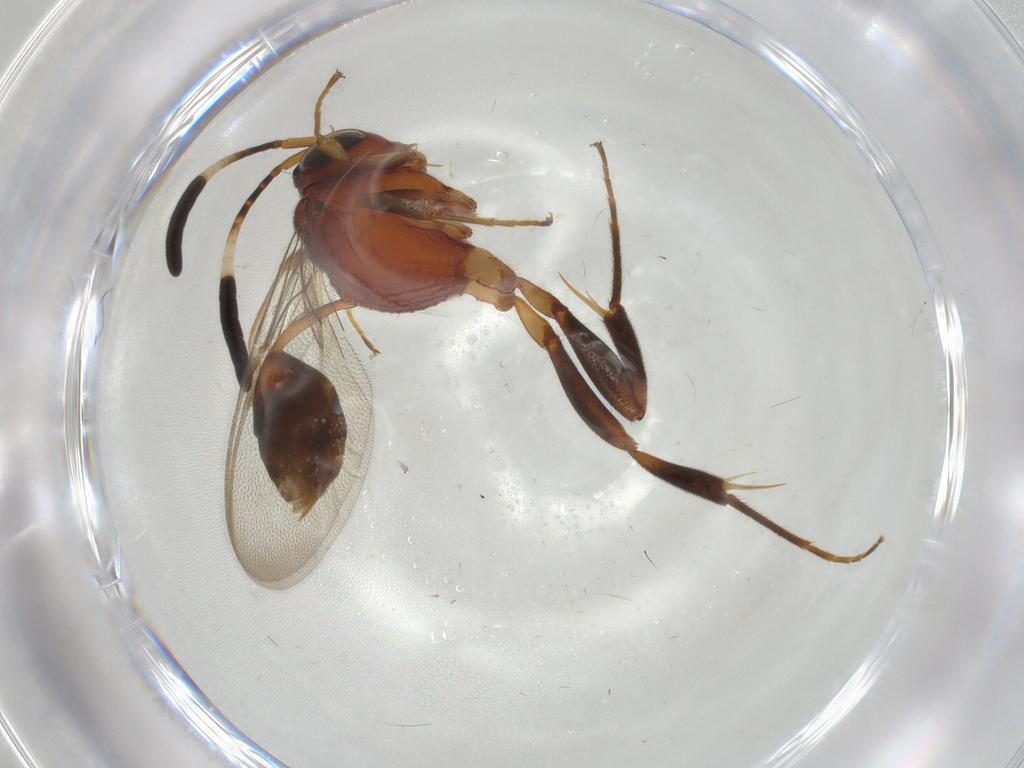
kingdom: Animalia
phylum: Arthropoda
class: Insecta
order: Hymenoptera
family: Evaniidae
